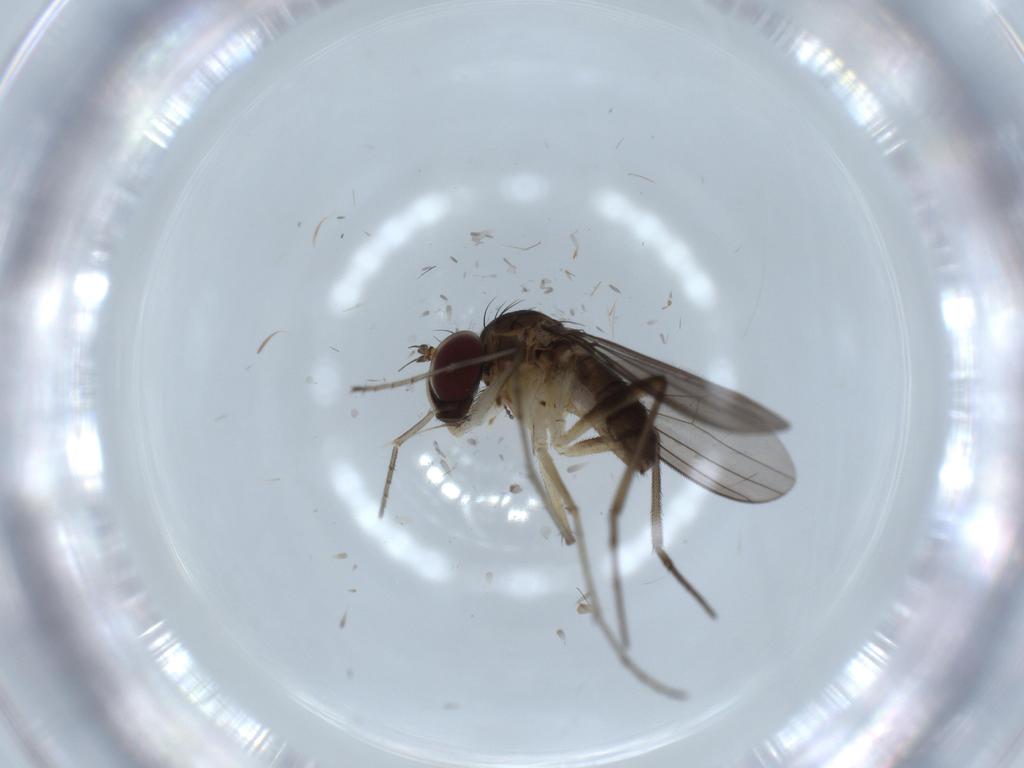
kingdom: Animalia
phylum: Arthropoda
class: Insecta
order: Diptera
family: Dolichopodidae
